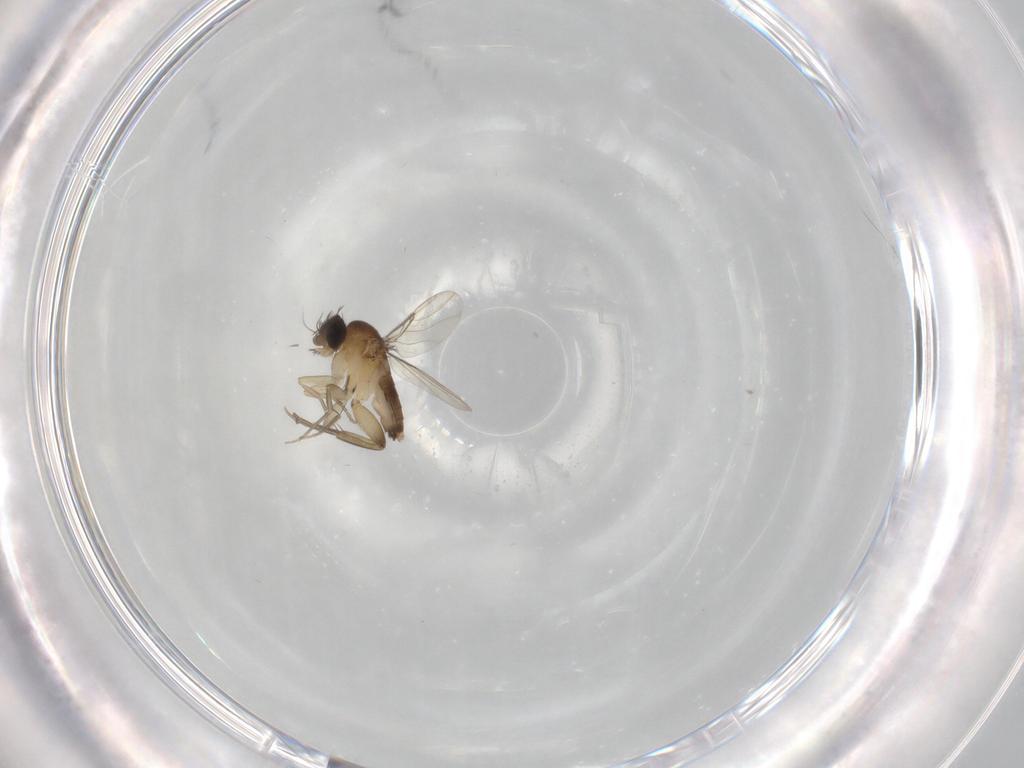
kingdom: Animalia
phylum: Arthropoda
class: Insecta
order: Diptera
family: Phoridae
